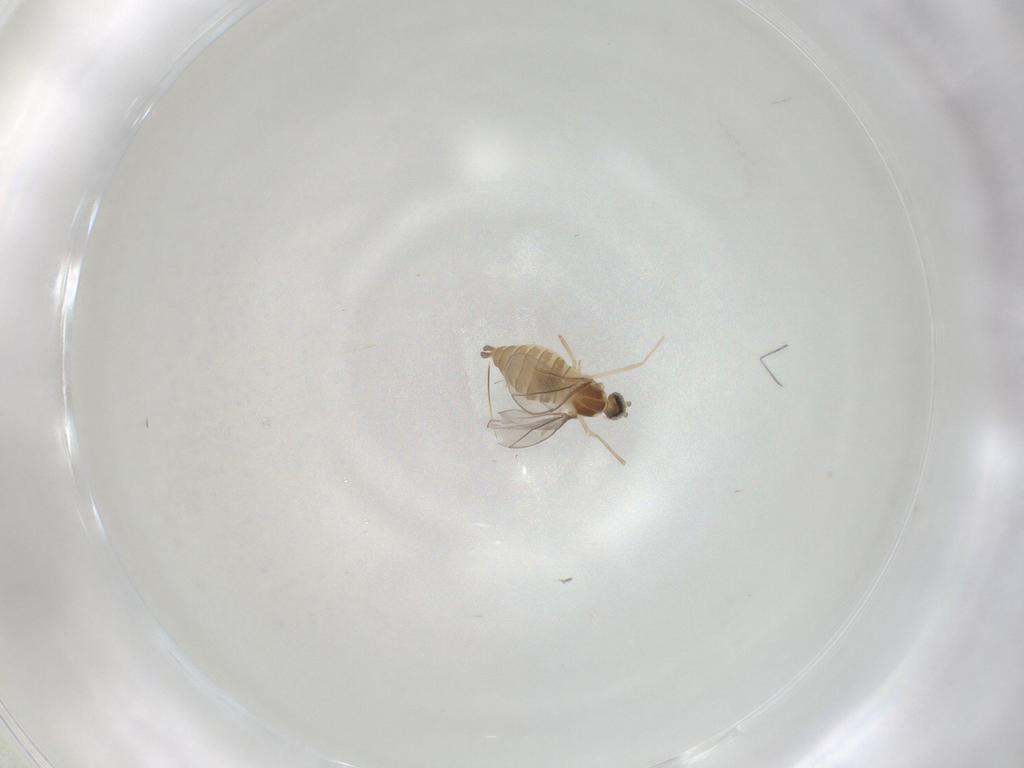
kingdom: Animalia
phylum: Arthropoda
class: Insecta
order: Diptera
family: Cecidomyiidae
